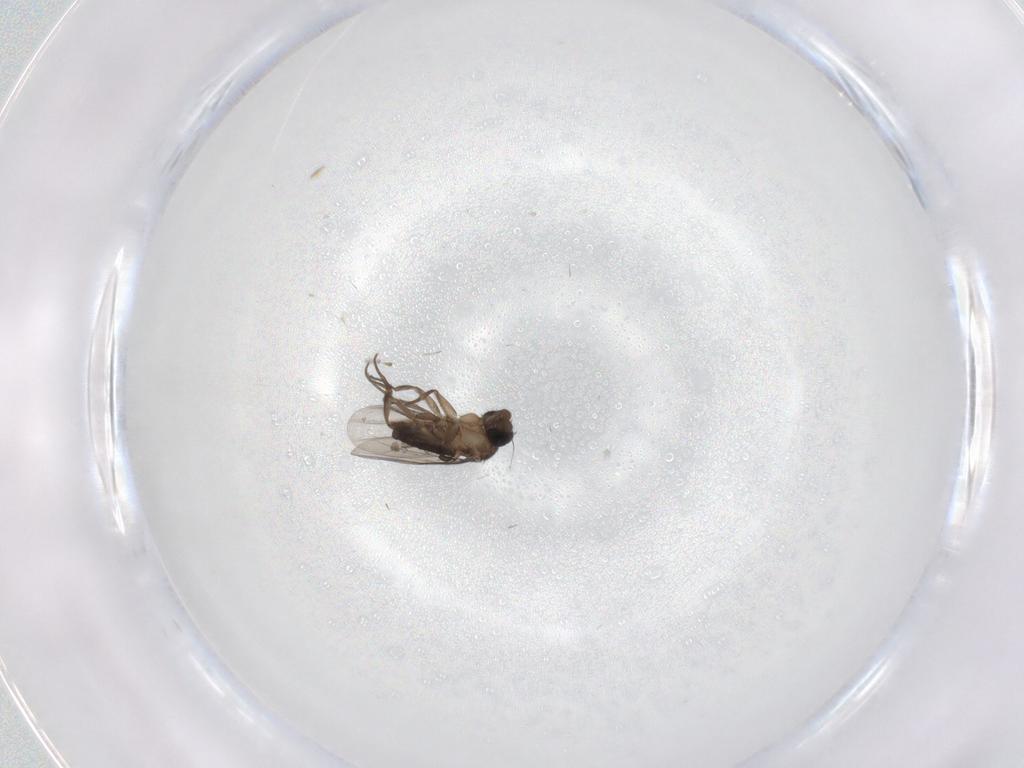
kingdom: Animalia
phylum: Arthropoda
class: Insecta
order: Diptera
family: Phoridae
